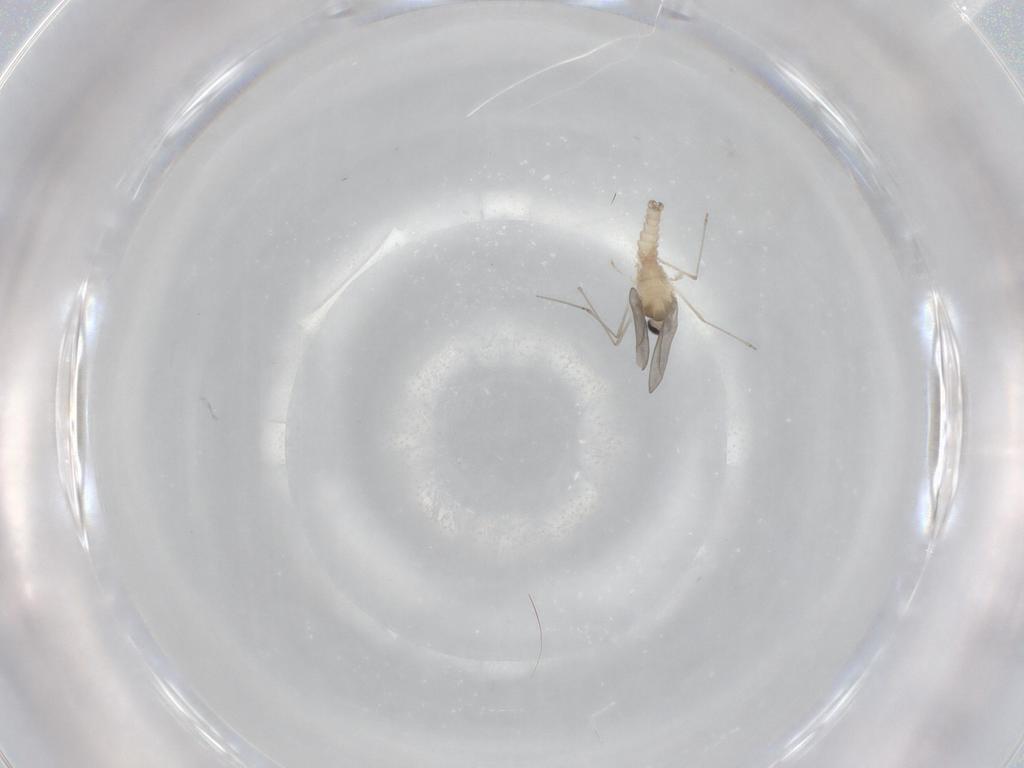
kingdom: Animalia
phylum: Arthropoda
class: Insecta
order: Diptera
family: Cecidomyiidae
